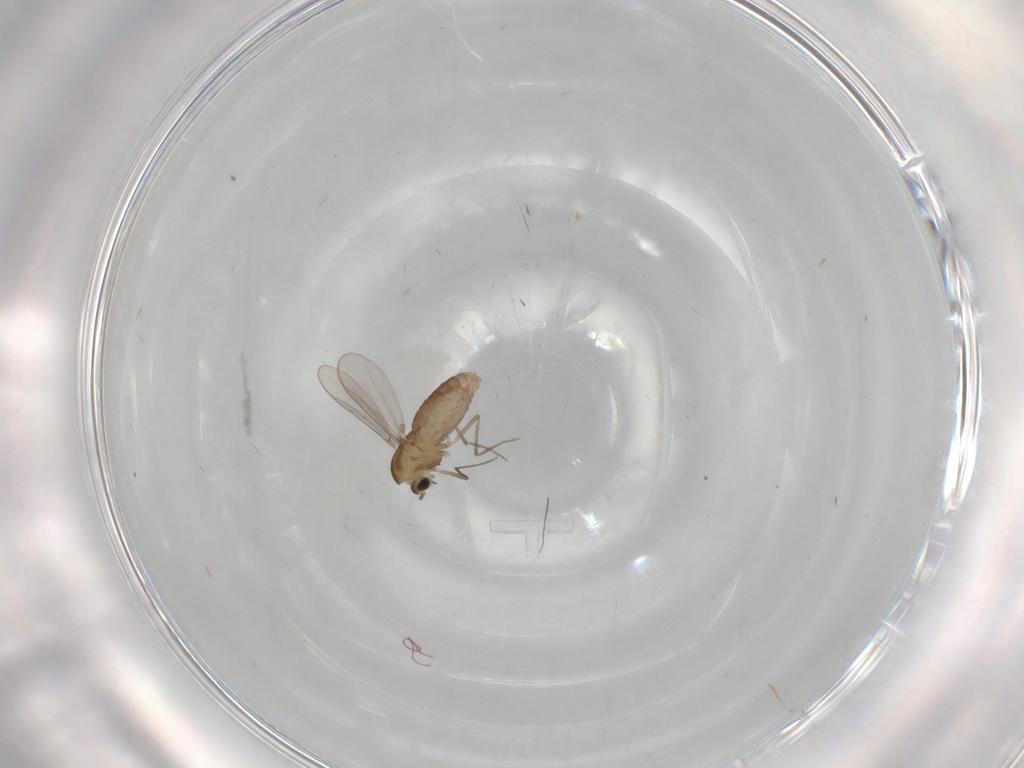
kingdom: Animalia
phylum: Arthropoda
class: Insecta
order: Diptera
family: Chironomidae
